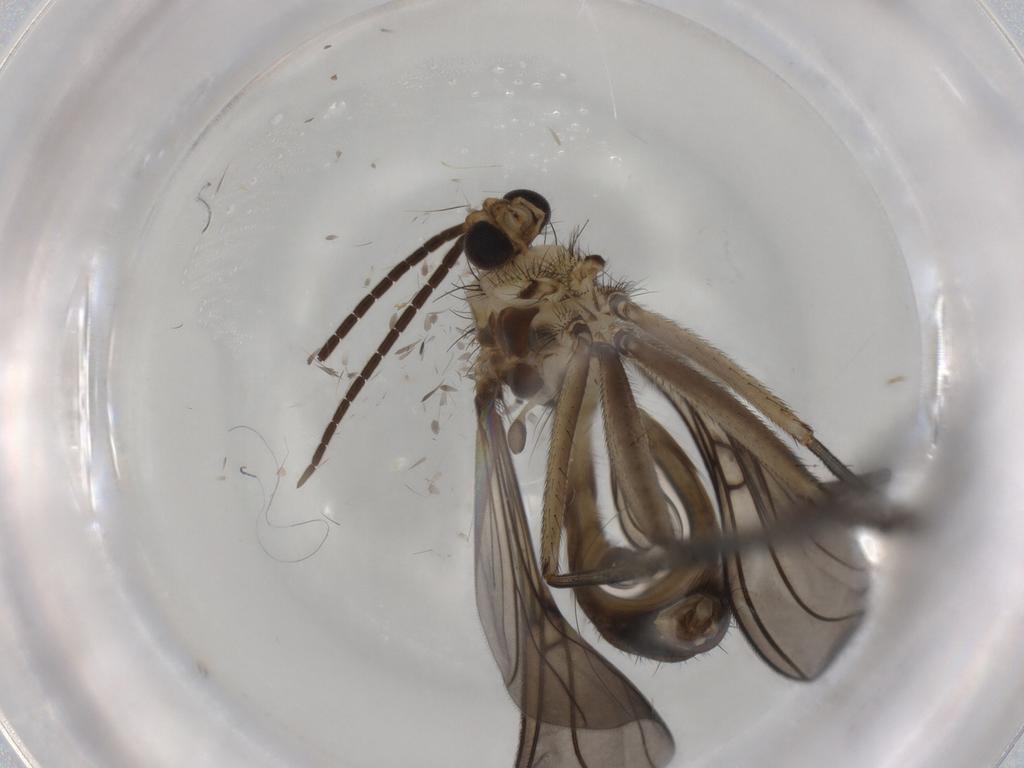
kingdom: Animalia
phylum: Arthropoda
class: Insecta
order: Diptera
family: Mycetophilidae
